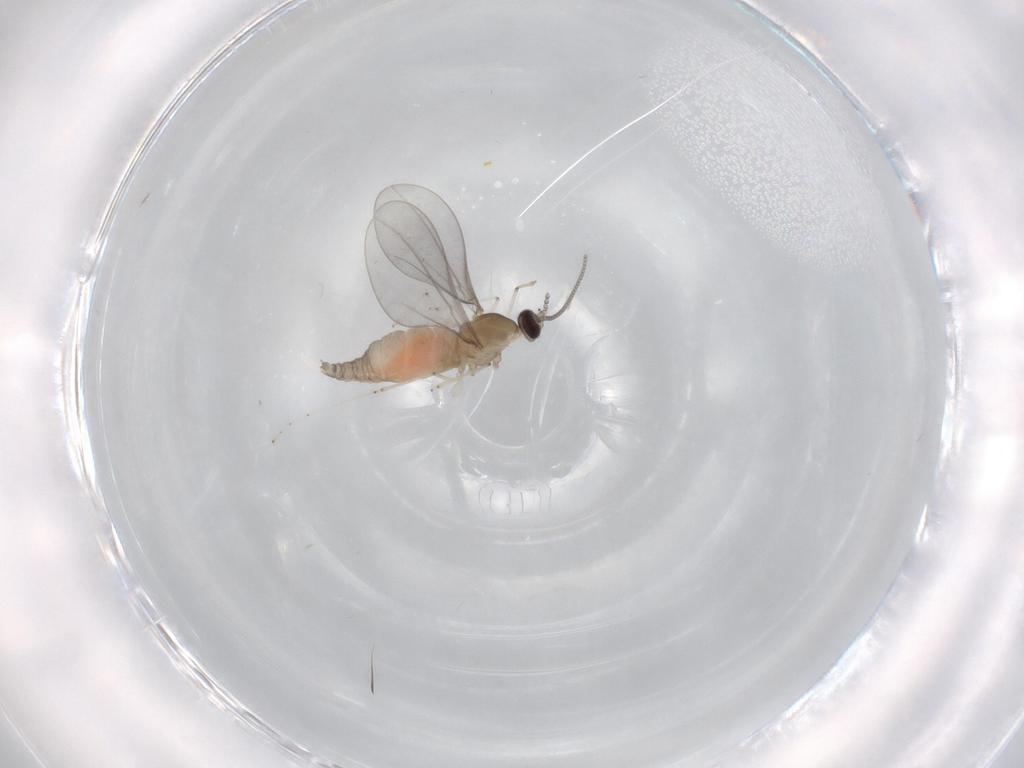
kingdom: Animalia
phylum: Arthropoda
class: Insecta
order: Diptera
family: Cecidomyiidae
